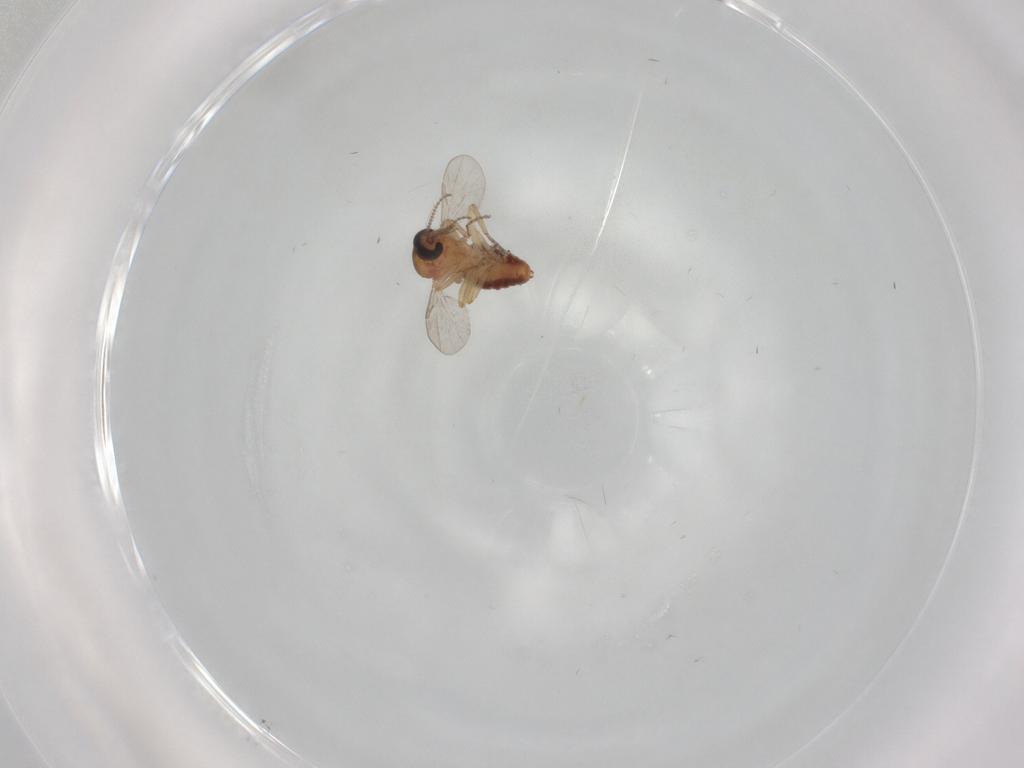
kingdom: Animalia
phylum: Arthropoda
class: Insecta
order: Diptera
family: Ceratopogonidae
